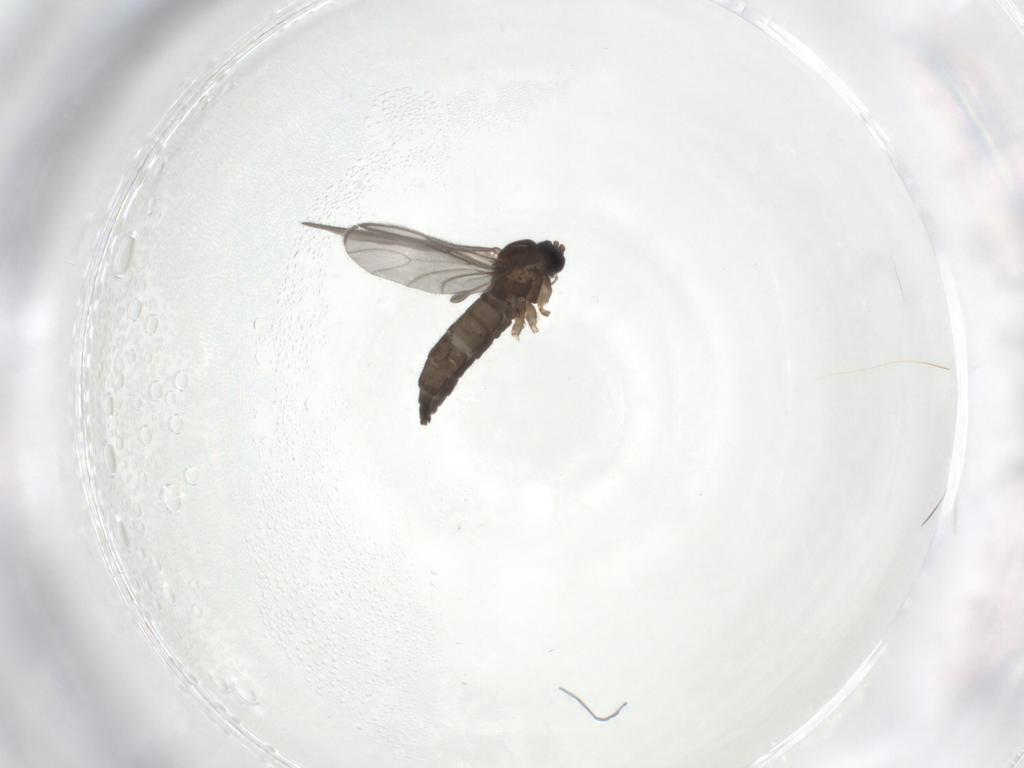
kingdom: Animalia
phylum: Arthropoda
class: Insecta
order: Diptera
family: Sciaridae
